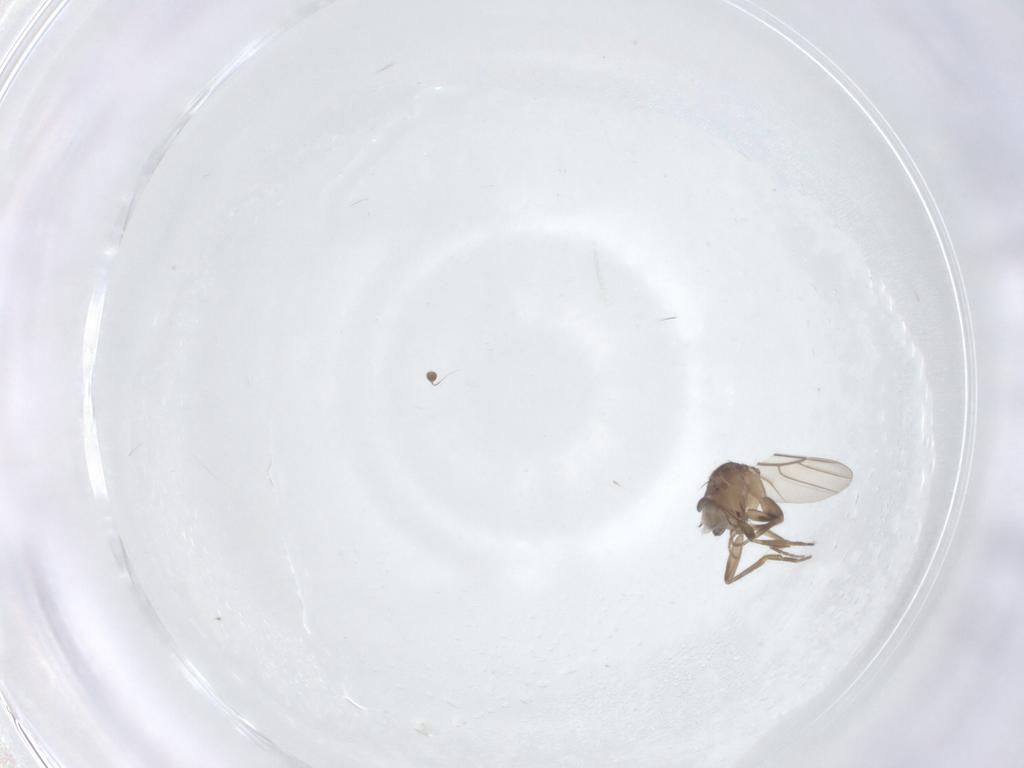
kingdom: Animalia
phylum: Arthropoda
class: Insecta
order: Diptera
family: Phoridae
